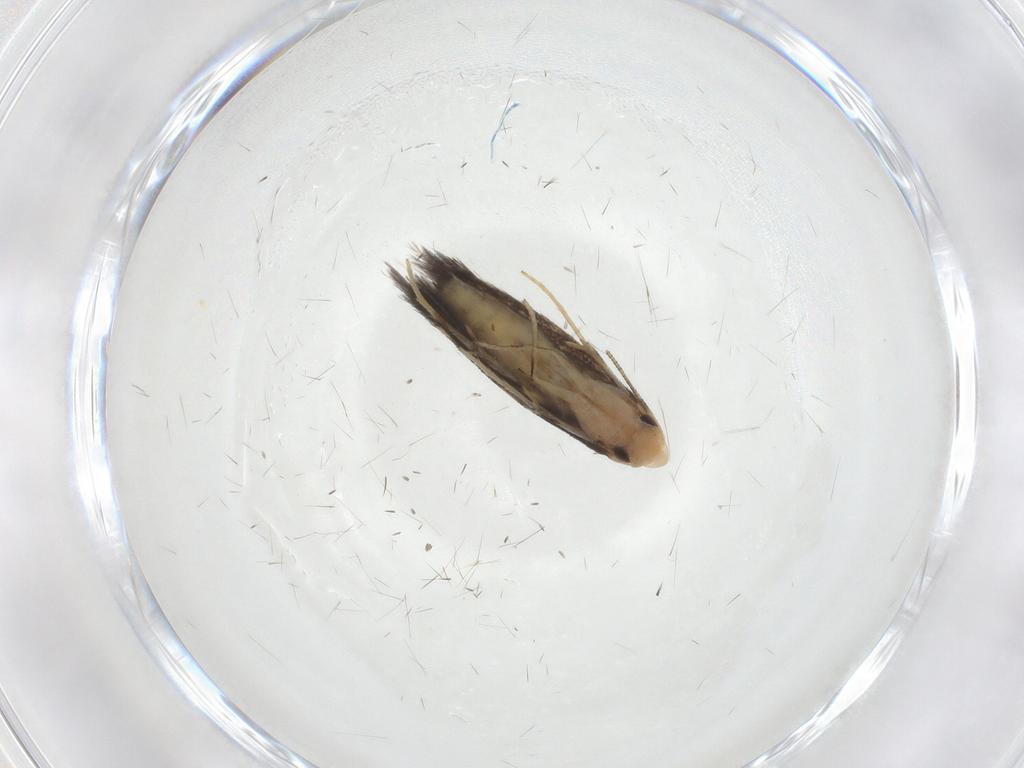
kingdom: Animalia
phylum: Arthropoda
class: Insecta
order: Lepidoptera
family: Nepticulidae
